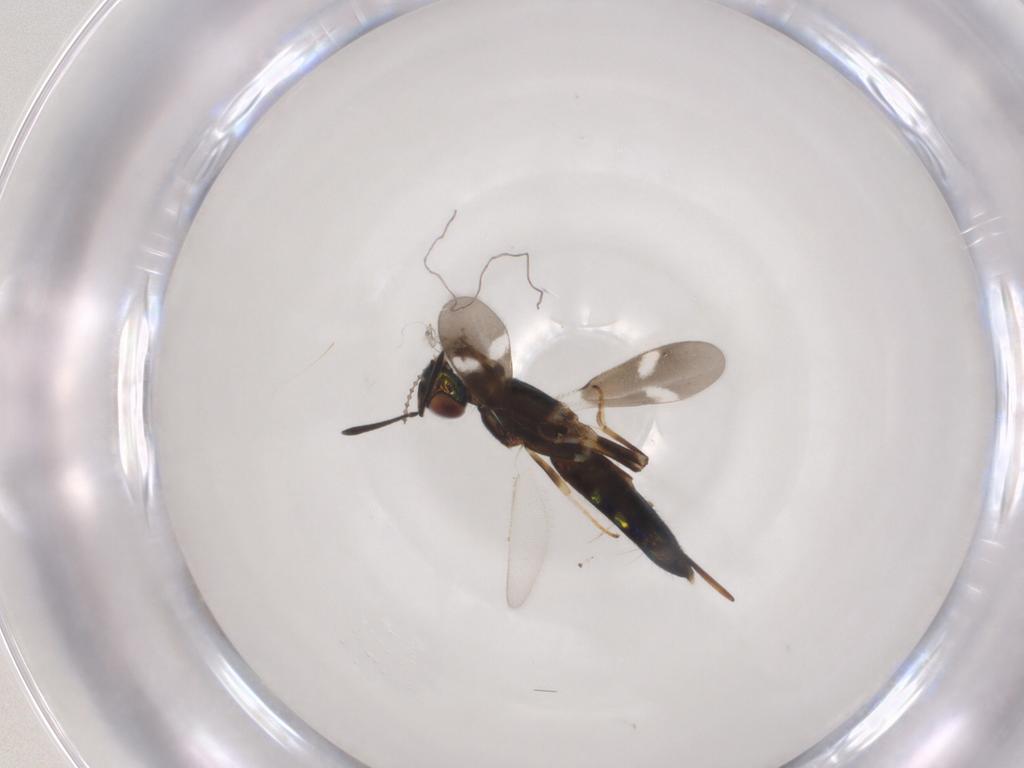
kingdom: Animalia
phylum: Arthropoda
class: Insecta
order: Hymenoptera
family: Eupelmidae
